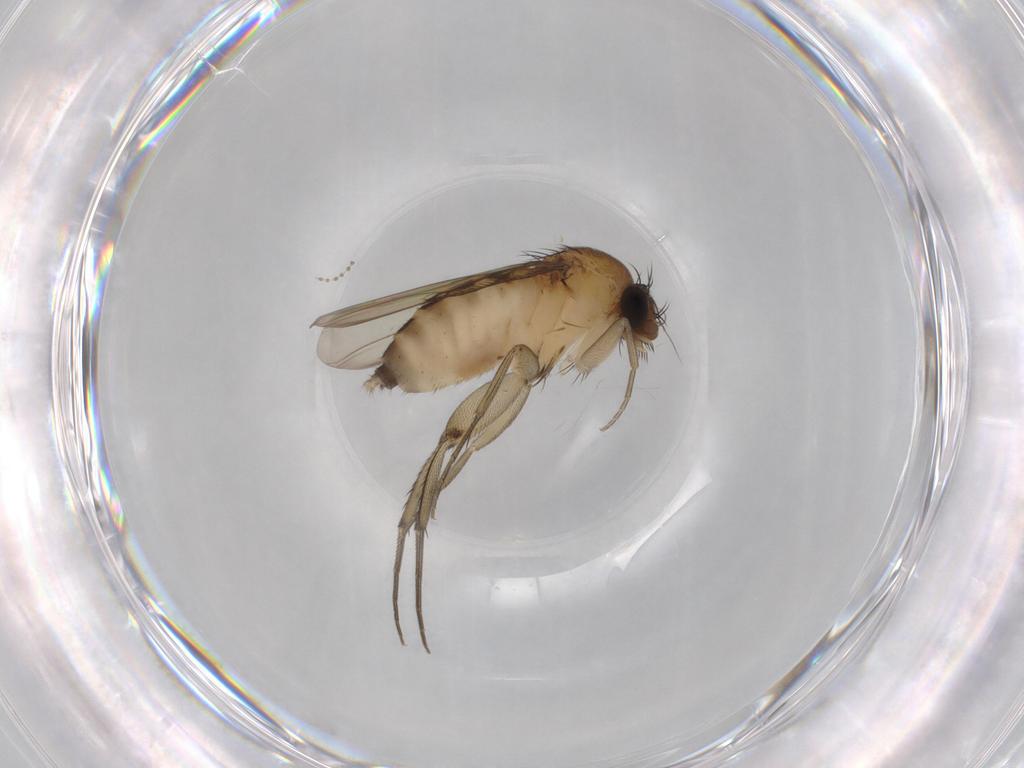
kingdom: Animalia
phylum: Arthropoda
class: Insecta
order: Diptera
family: Phoridae
